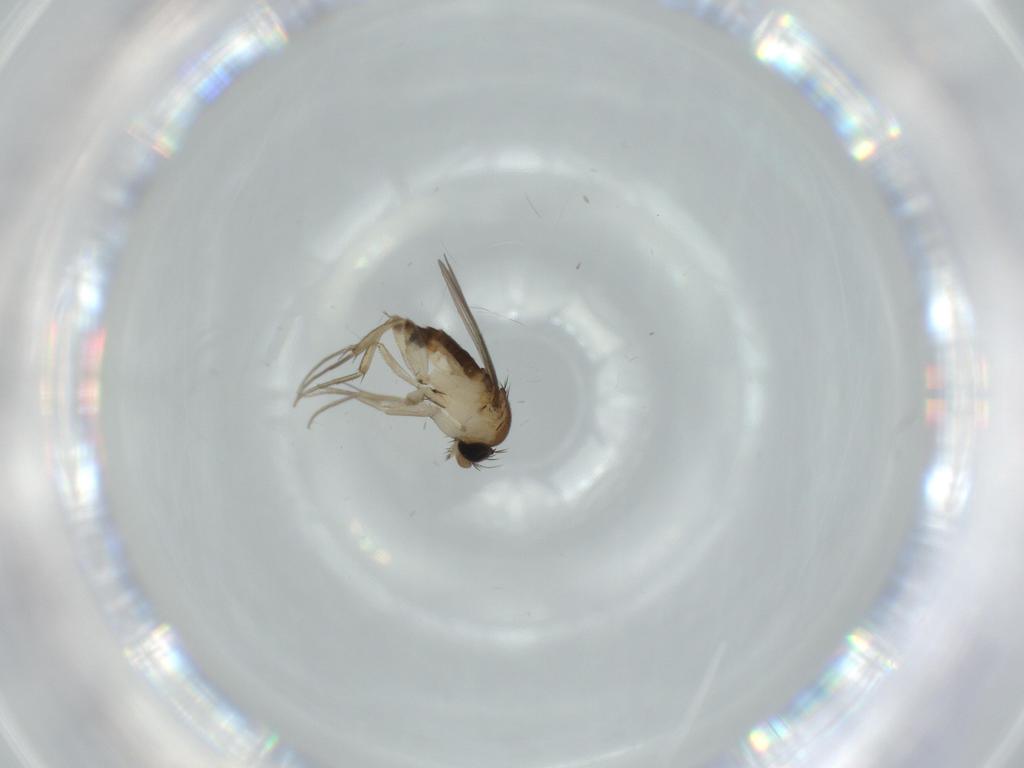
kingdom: Animalia
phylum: Arthropoda
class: Insecta
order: Diptera
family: Phoridae
